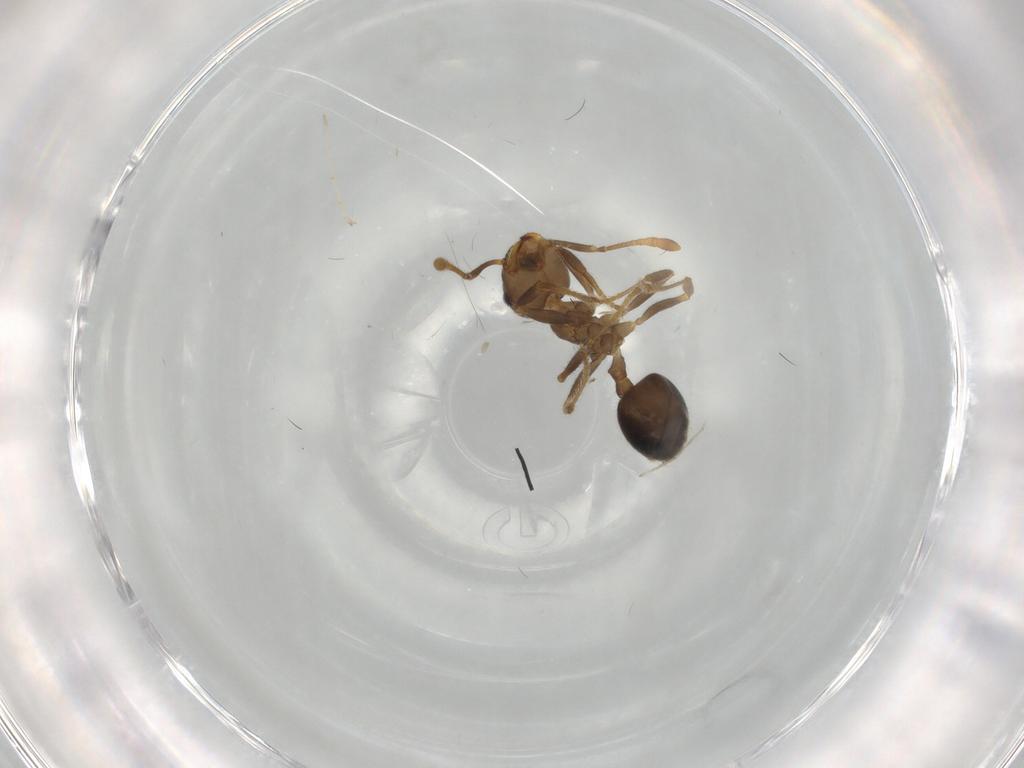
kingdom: Animalia
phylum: Arthropoda
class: Insecta
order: Hymenoptera
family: Formicidae
